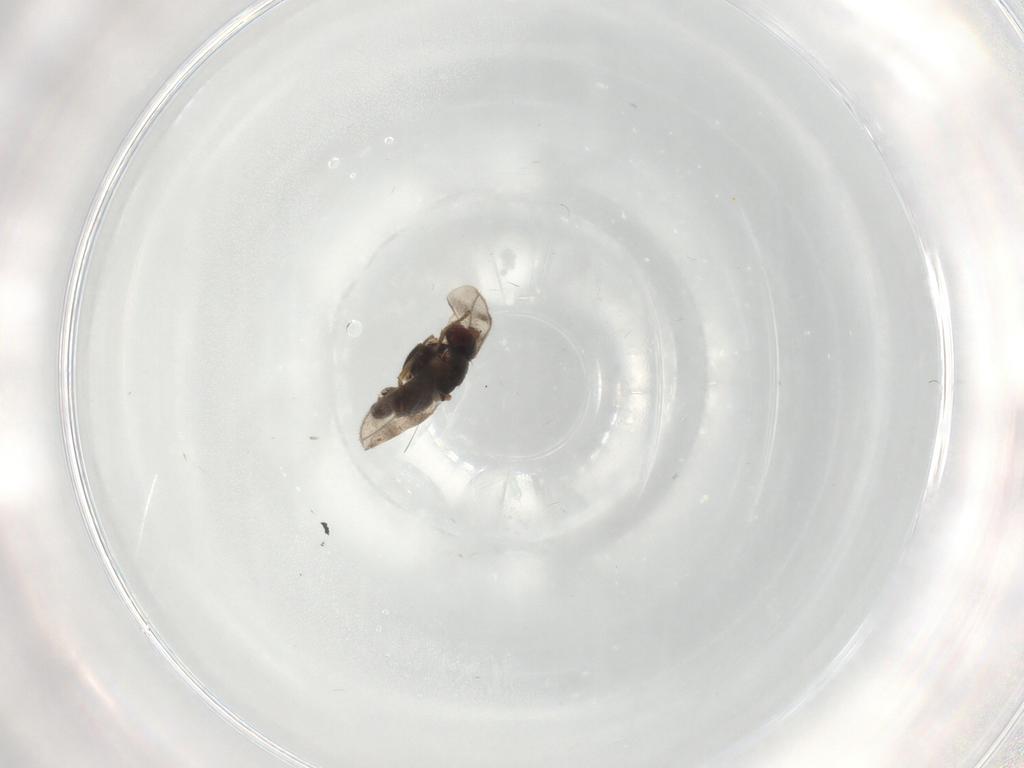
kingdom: Animalia
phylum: Arthropoda
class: Insecta
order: Diptera
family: Sphaeroceridae
